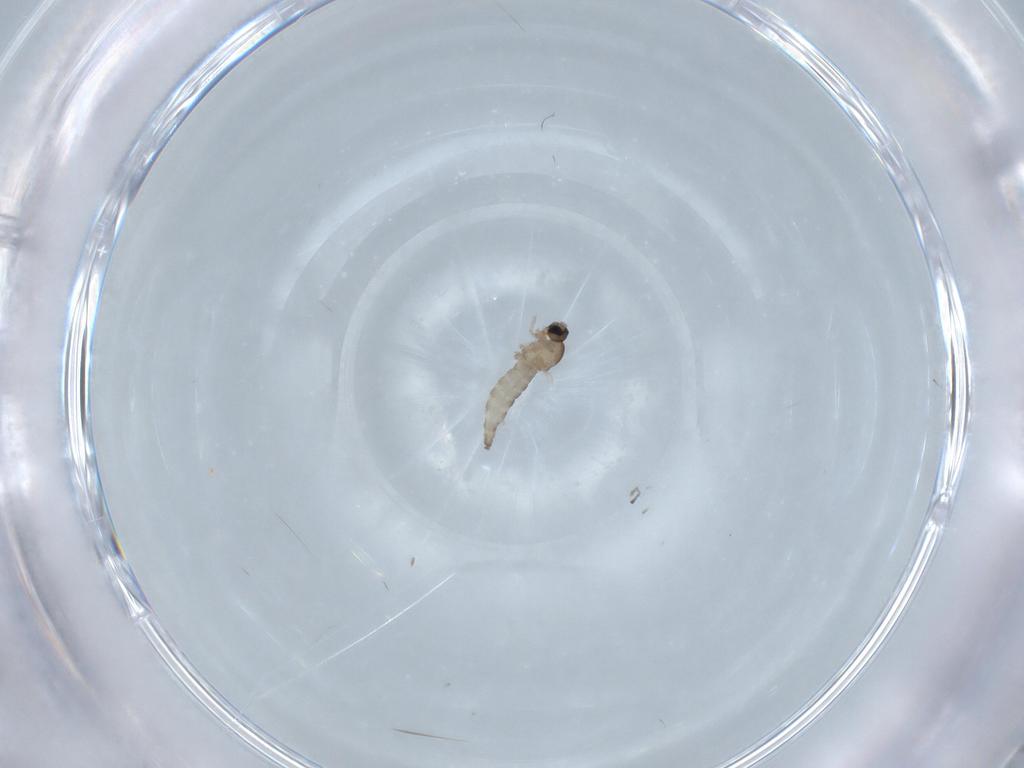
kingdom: Animalia
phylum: Arthropoda
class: Insecta
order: Diptera
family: Cecidomyiidae
